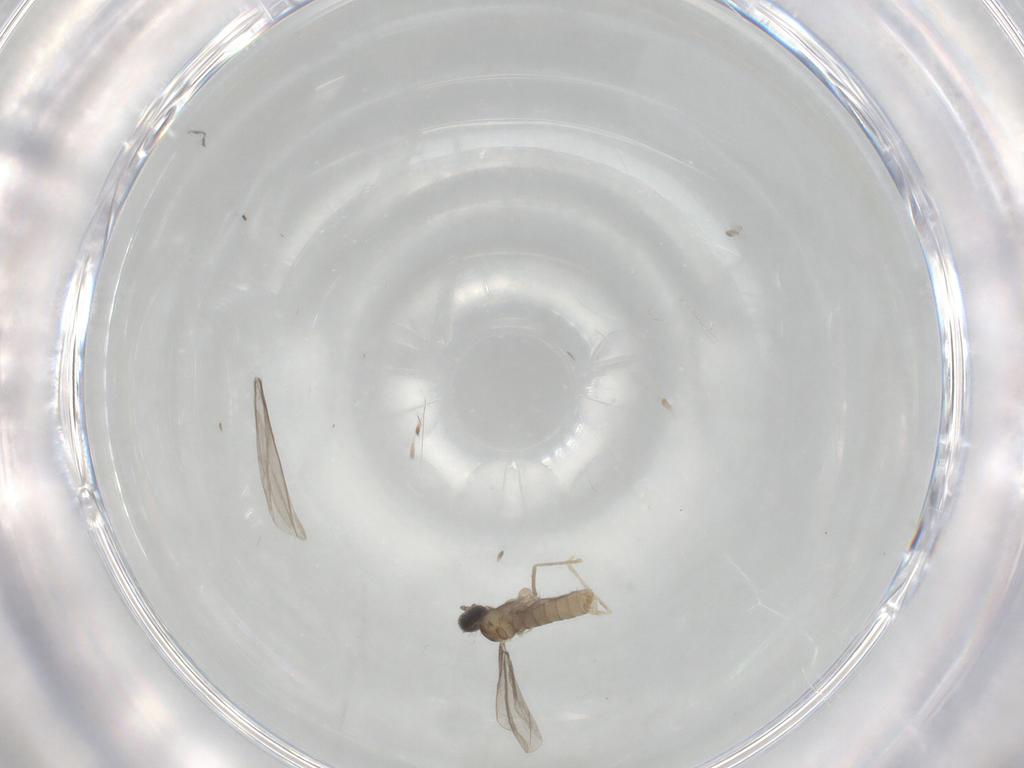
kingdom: Animalia
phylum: Arthropoda
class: Insecta
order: Diptera
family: Cecidomyiidae
